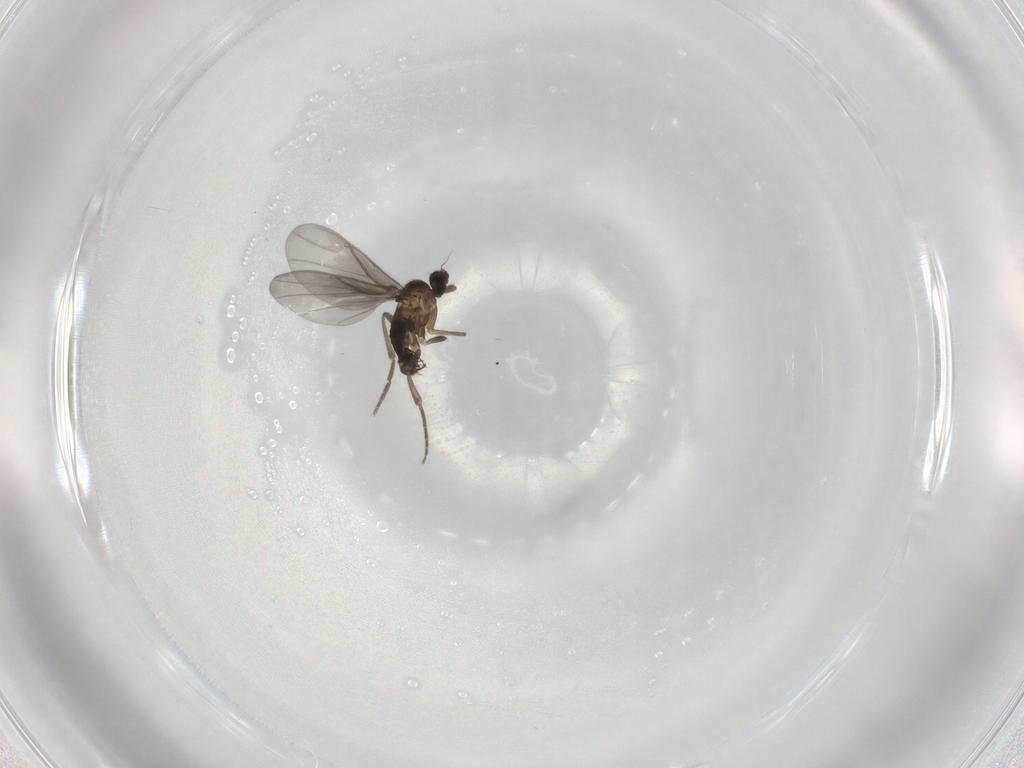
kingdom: Animalia
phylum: Arthropoda
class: Insecta
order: Diptera
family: Phoridae
